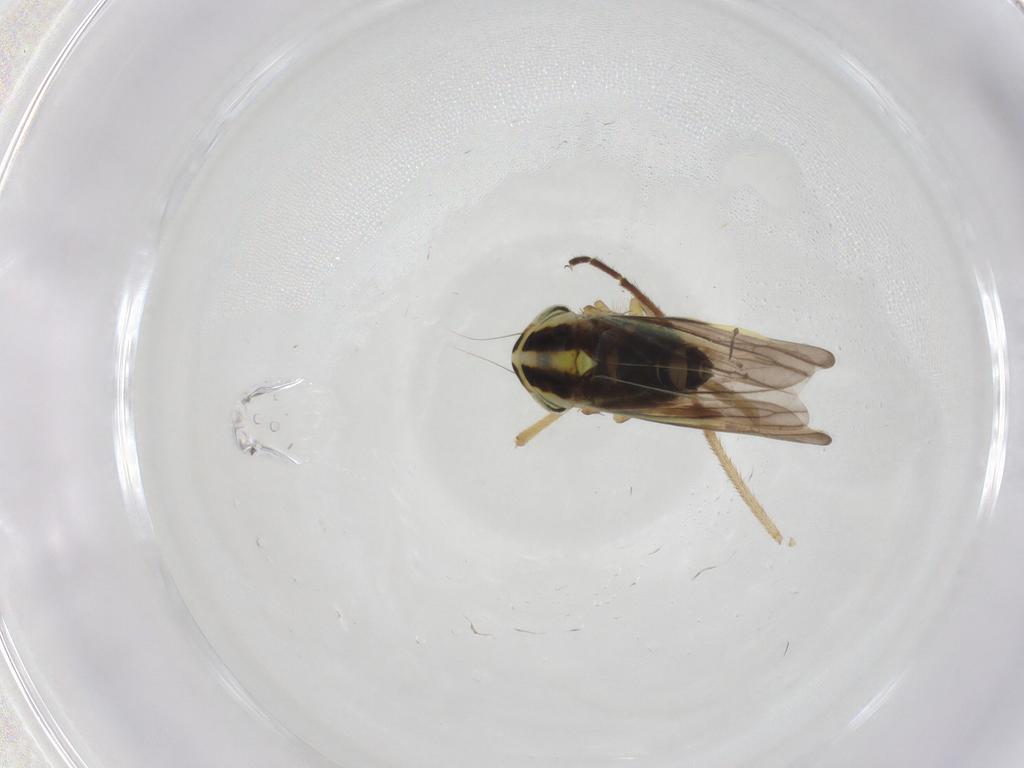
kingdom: Animalia
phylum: Arthropoda
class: Insecta
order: Hemiptera
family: Cicadellidae
